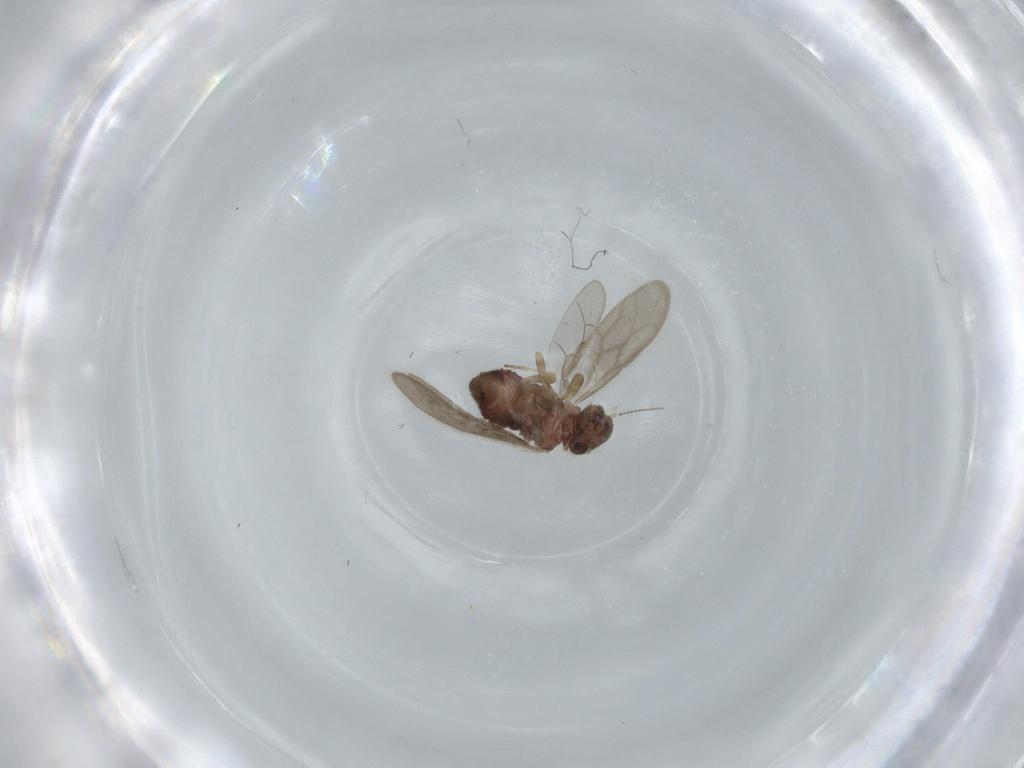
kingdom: Animalia
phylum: Arthropoda
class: Insecta
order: Psocodea
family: Archipsocidae
